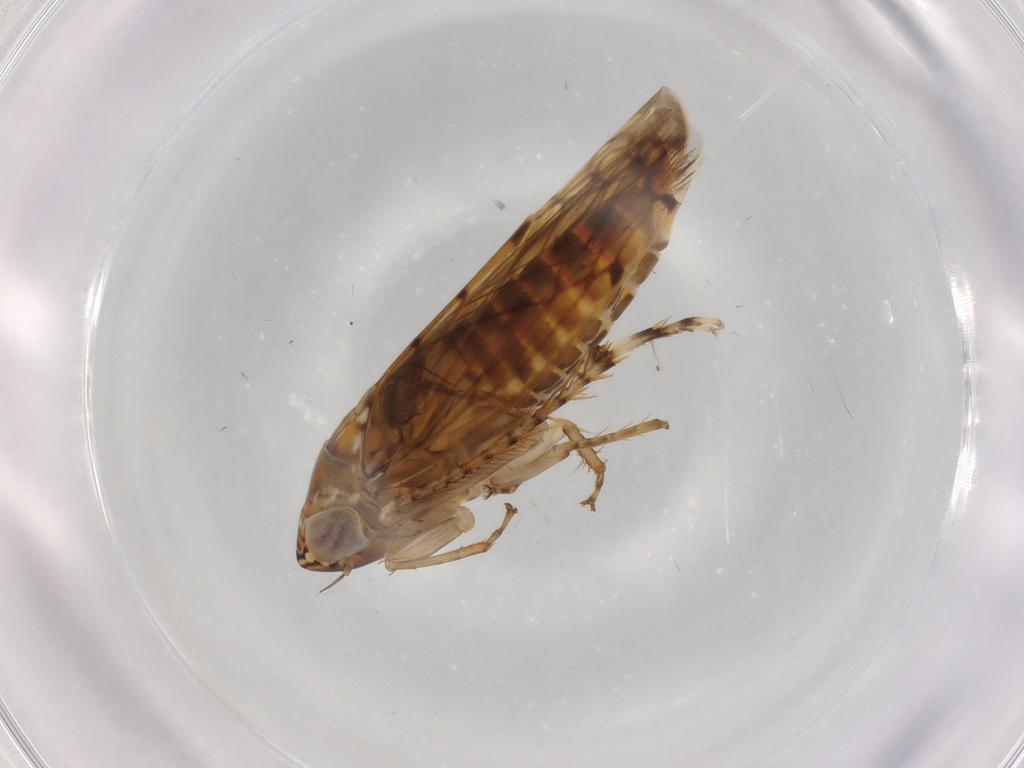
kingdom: Animalia
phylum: Arthropoda
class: Insecta
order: Hemiptera
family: Cicadellidae
